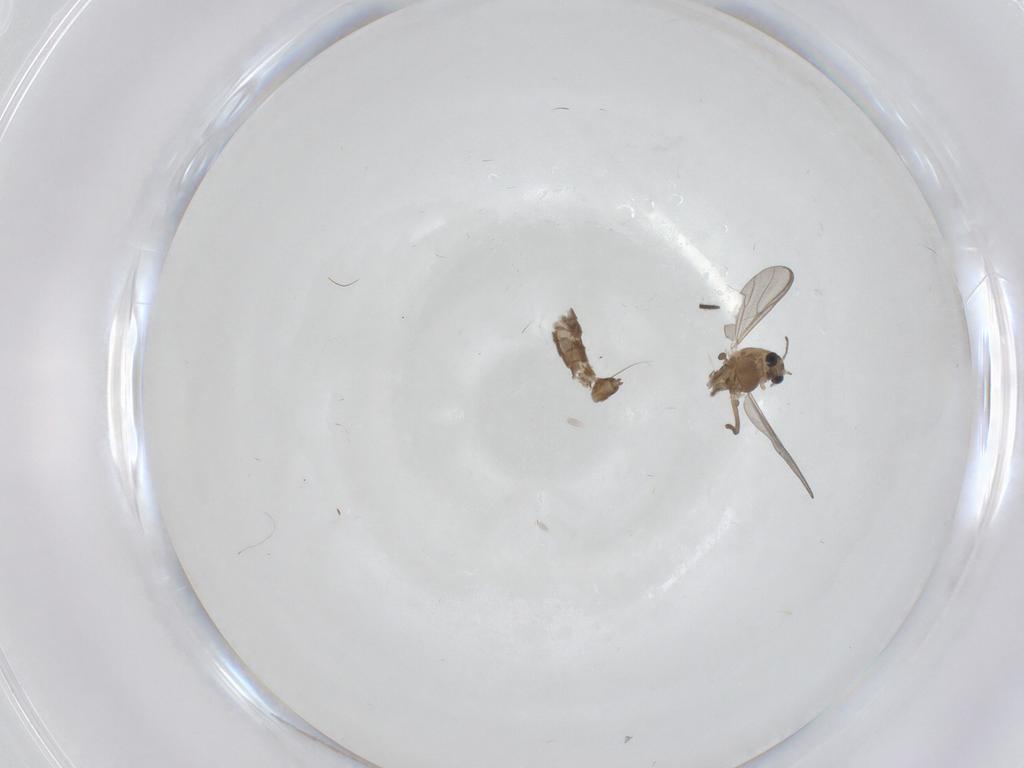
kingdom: Animalia
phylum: Arthropoda
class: Insecta
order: Diptera
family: Chironomidae
